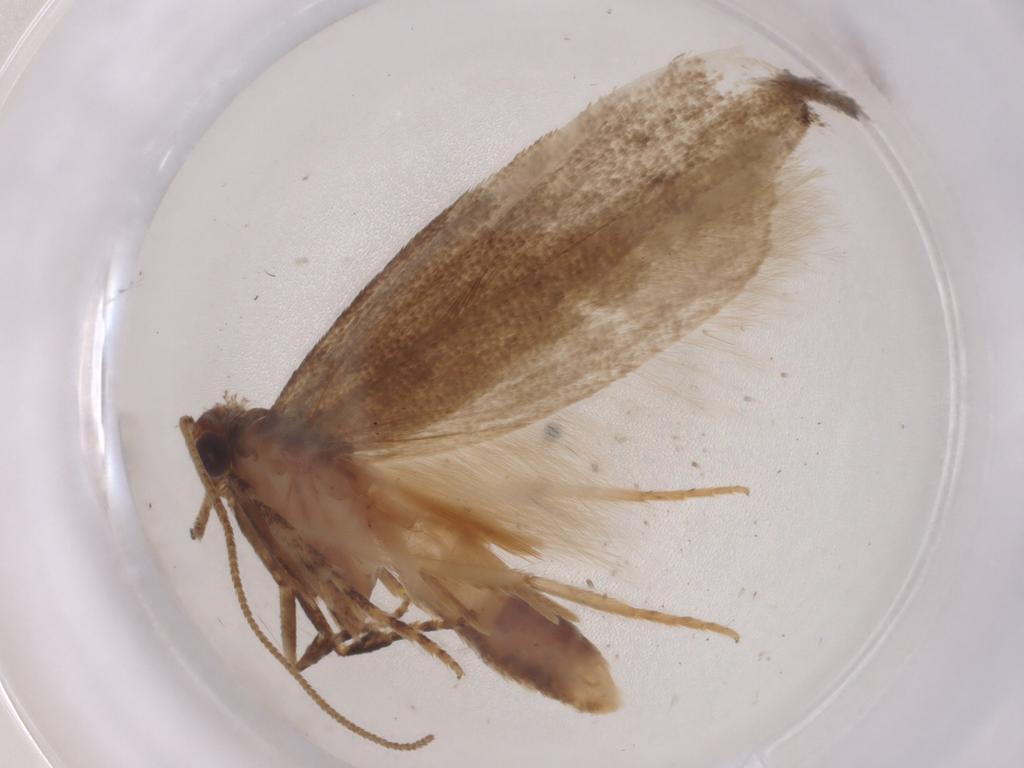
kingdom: Animalia
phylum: Arthropoda
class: Insecta
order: Lepidoptera
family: Gelechiidae
